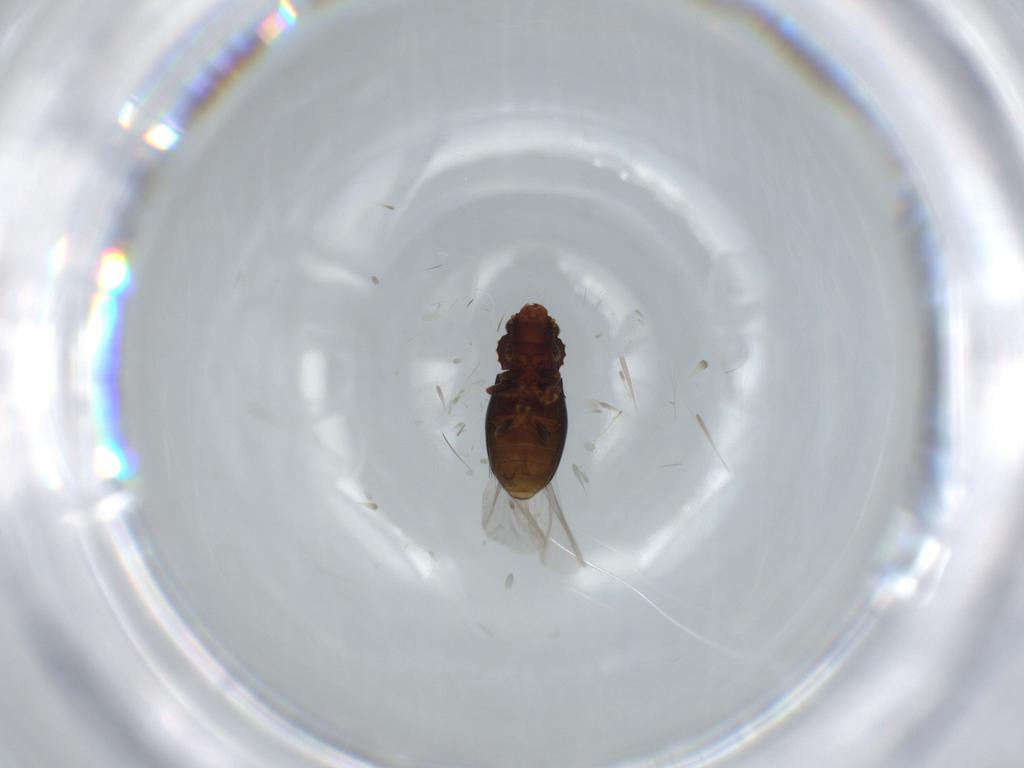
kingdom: Animalia
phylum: Arthropoda
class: Insecta
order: Coleoptera
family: Salpingidae
